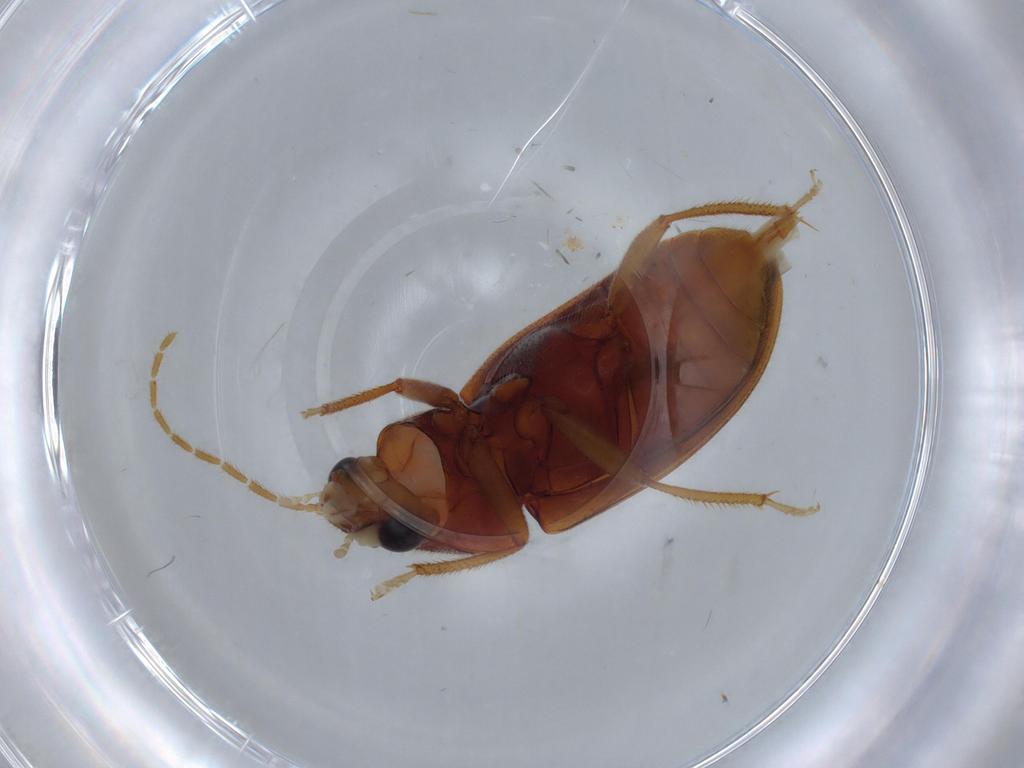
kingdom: Animalia
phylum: Arthropoda
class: Insecta
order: Coleoptera
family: Ptilodactylidae
